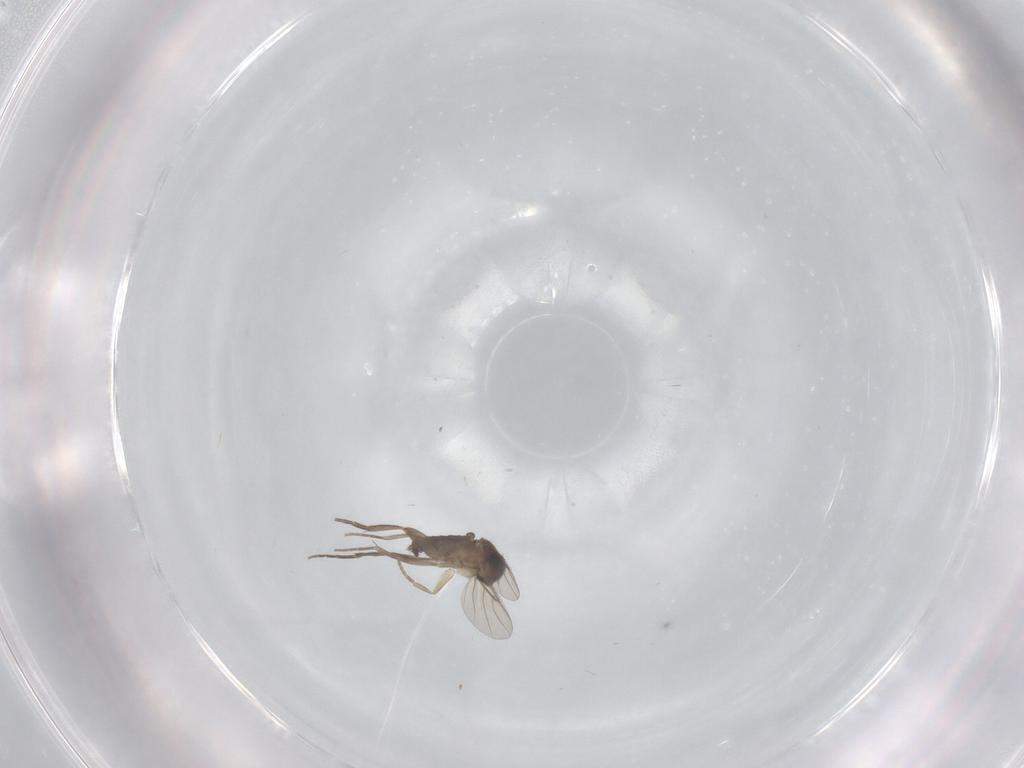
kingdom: Animalia
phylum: Arthropoda
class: Insecta
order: Diptera
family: Phoridae
